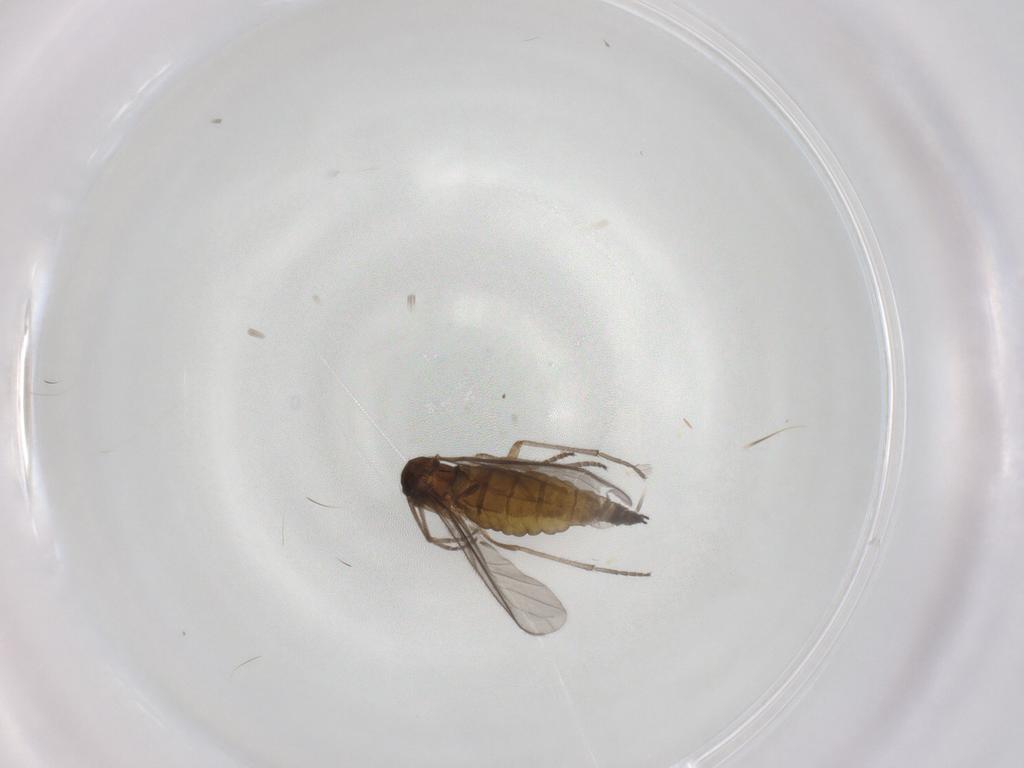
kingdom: Animalia
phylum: Arthropoda
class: Insecta
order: Diptera
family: Sciaridae
